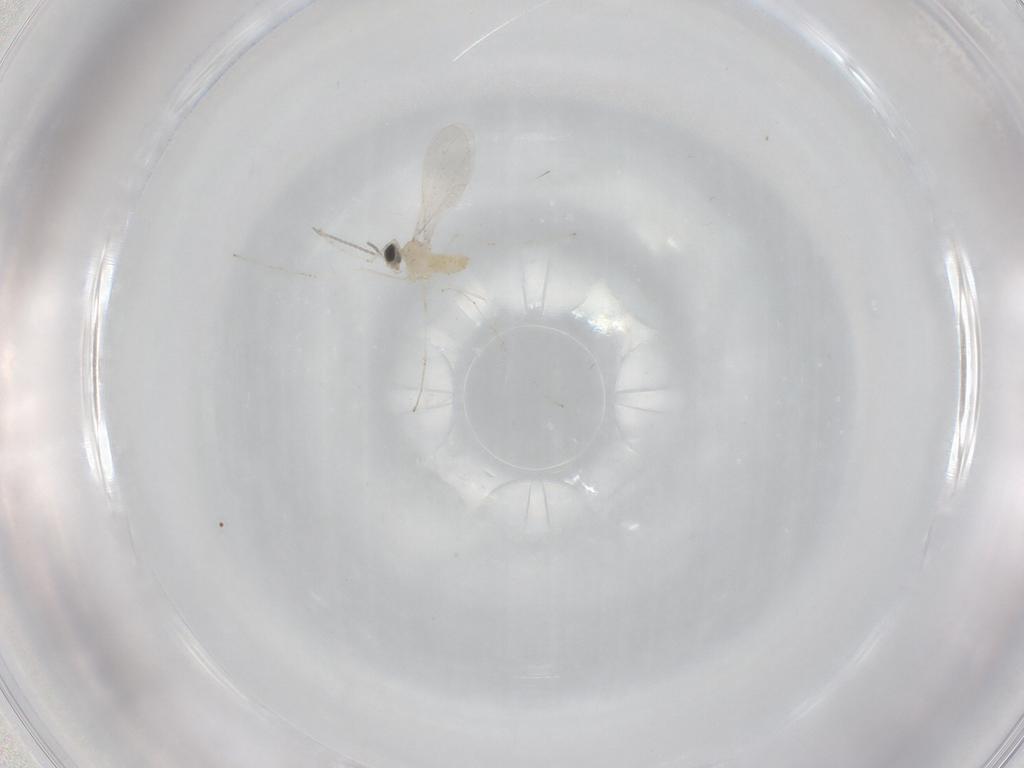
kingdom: Animalia
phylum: Arthropoda
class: Insecta
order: Diptera
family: Cecidomyiidae
